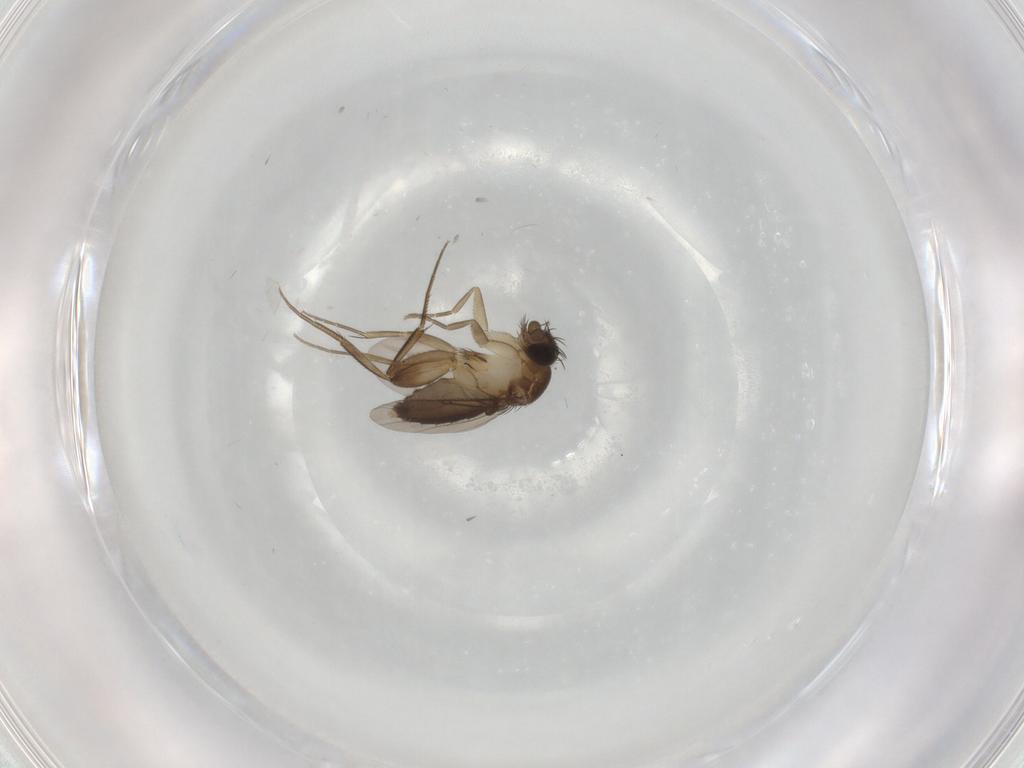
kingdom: Animalia
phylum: Arthropoda
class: Insecta
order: Diptera
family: Phoridae
